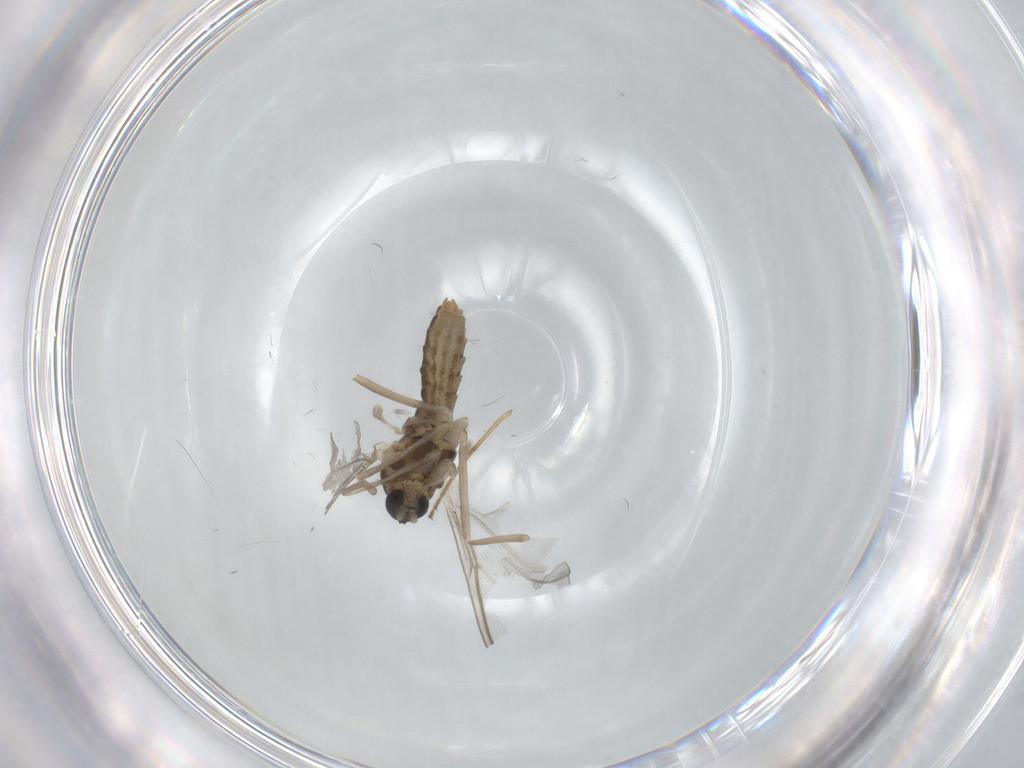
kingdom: Animalia
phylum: Arthropoda
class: Insecta
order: Diptera
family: Cecidomyiidae
